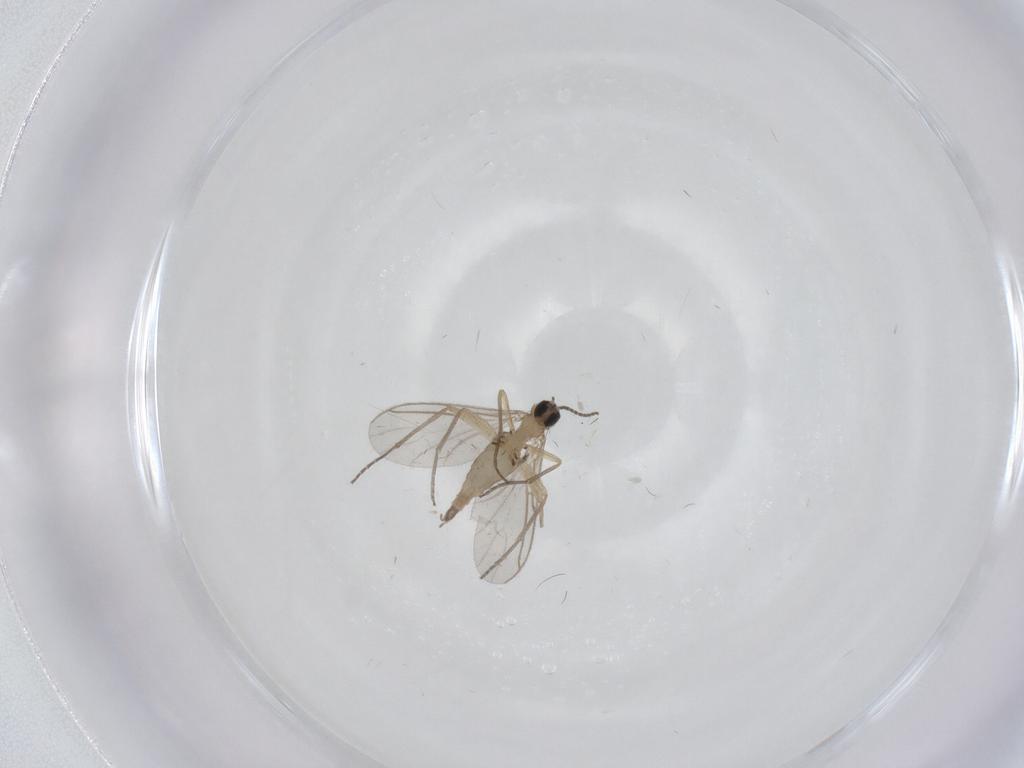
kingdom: Animalia
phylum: Arthropoda
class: Insecta
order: Diptera
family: Sciaridae
